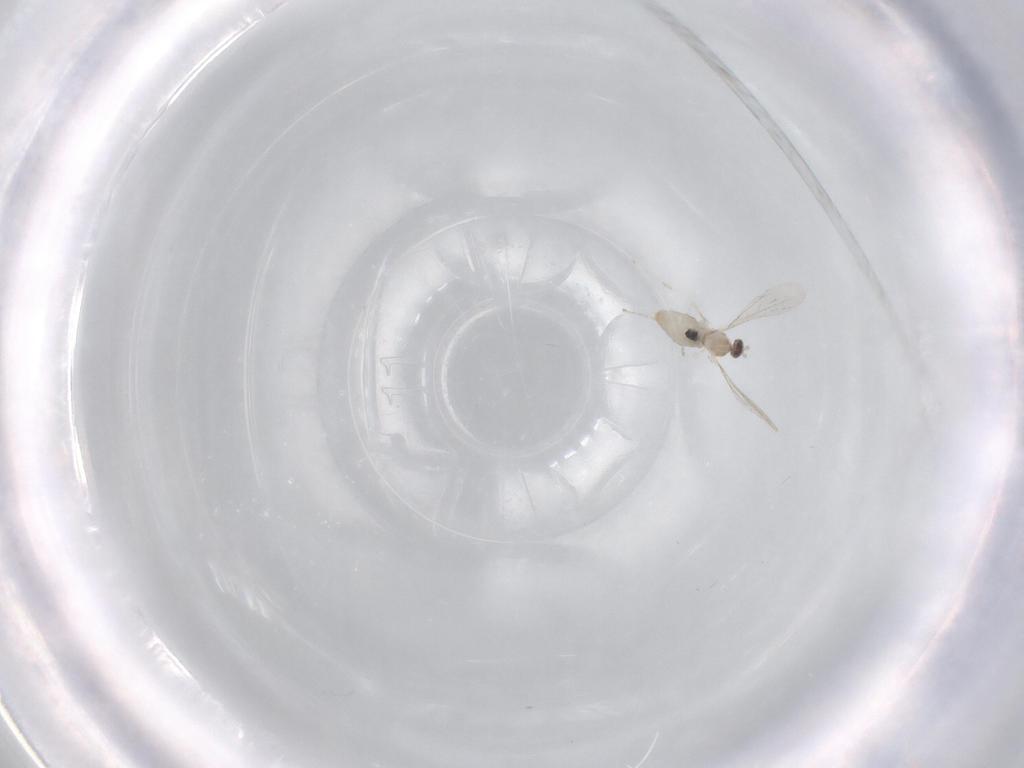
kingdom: Animalia
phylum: Arthropoda
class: Insecta
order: Diptera
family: Cecidomyiidae
